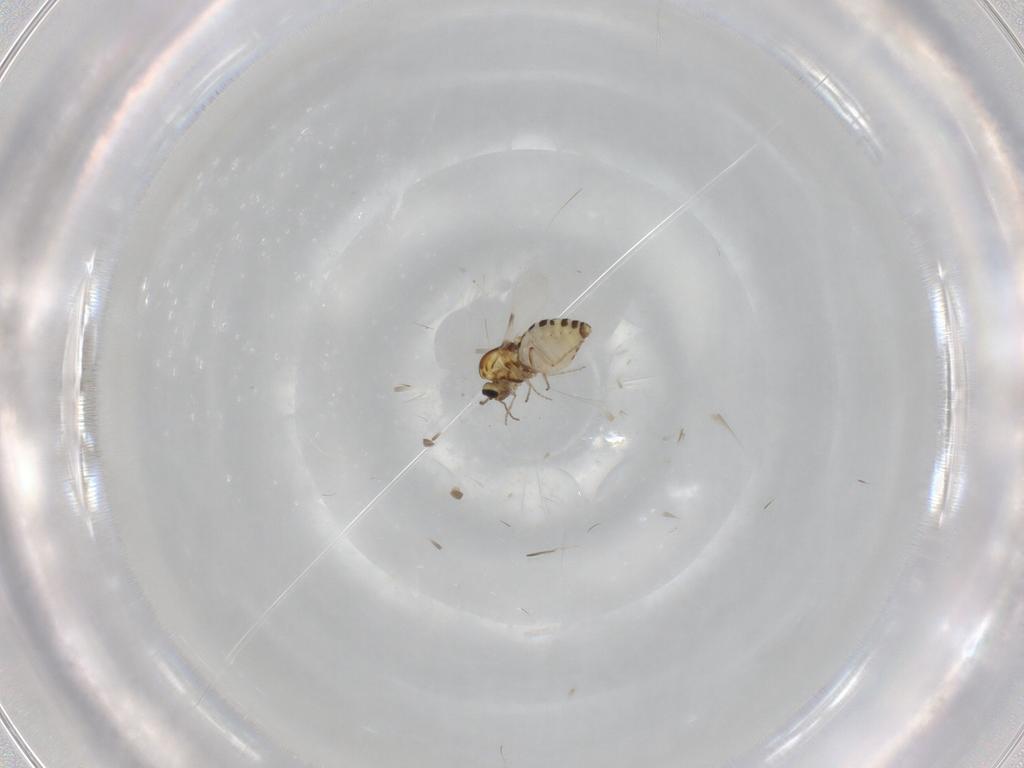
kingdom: Animalia
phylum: Arthropoda
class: Insecta
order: Diptera
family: Ceratopogonidae
